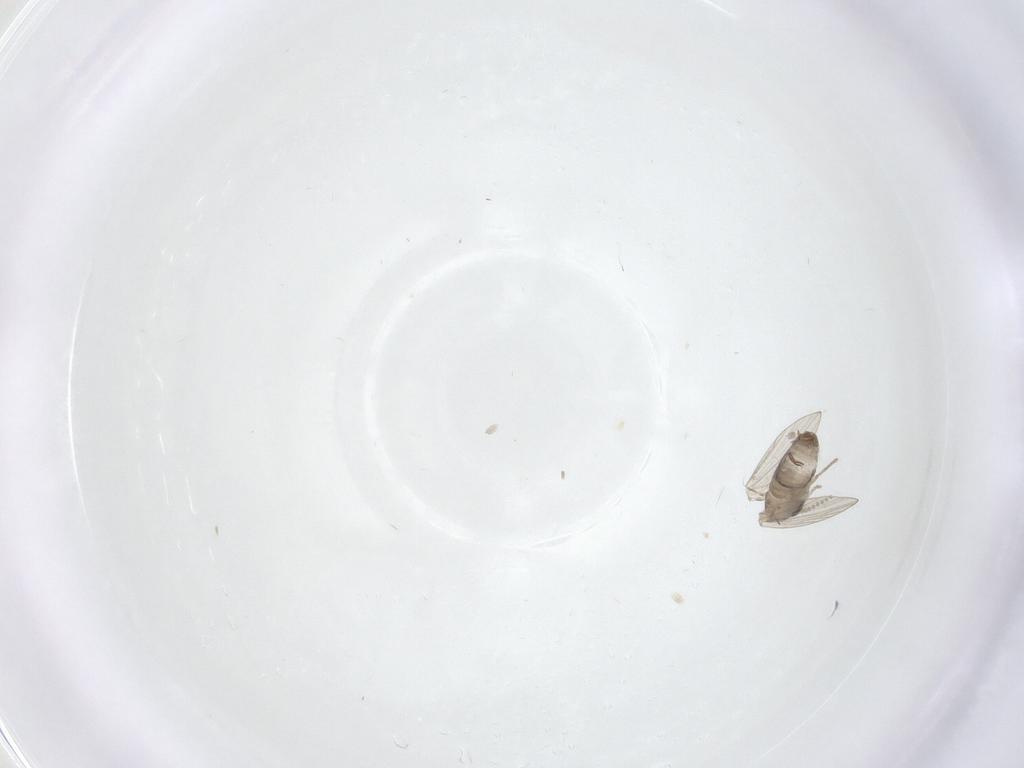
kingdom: Animalia
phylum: Arthropoda
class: Insecta
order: Diptera
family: Psychodidae
